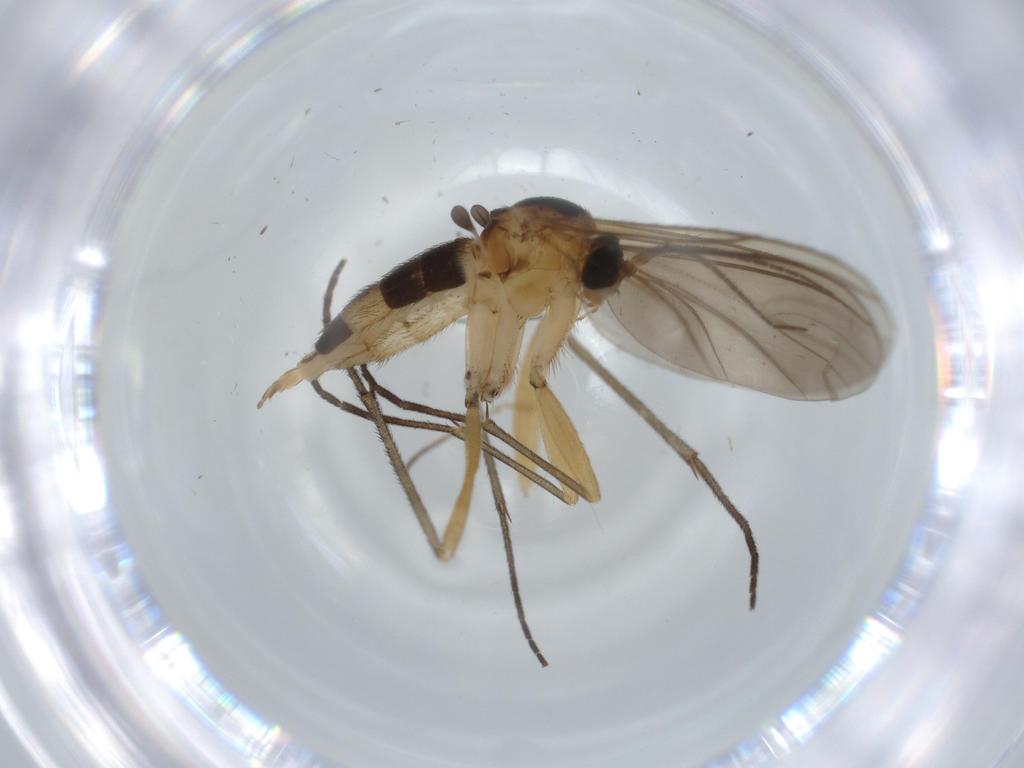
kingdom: Animalia
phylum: Arthropoda
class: Insecta
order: Diptera
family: Sciaridae
